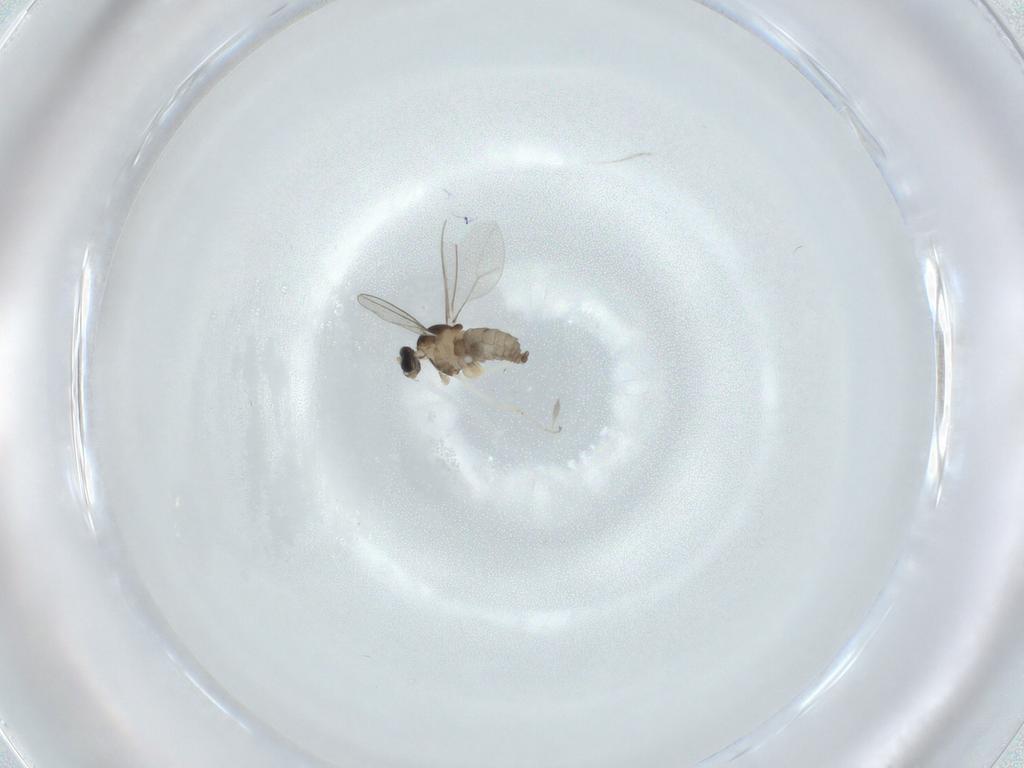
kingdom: Animalia
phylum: Arthropoda
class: Insecta
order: Diptera
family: Cecidomyiidae
